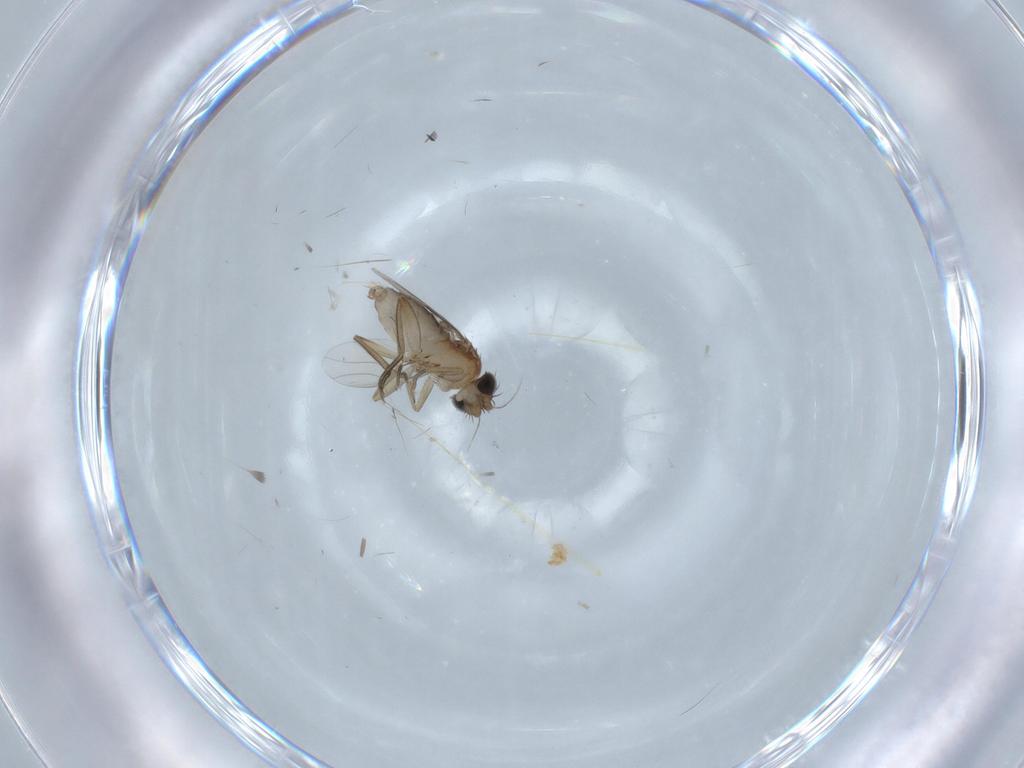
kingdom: Animalia
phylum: Arthropoda
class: Insecta
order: Diptera
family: Phoridae
